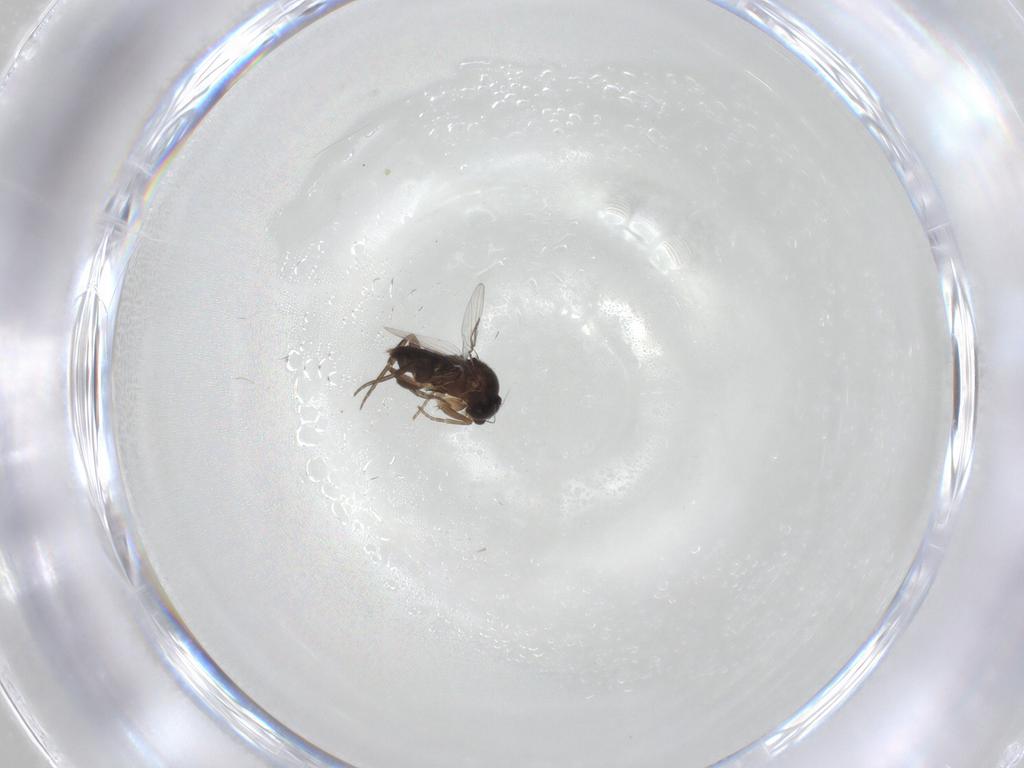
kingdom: Animalia
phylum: Arthropoda
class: Insecta
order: Diptera
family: Phoridae
